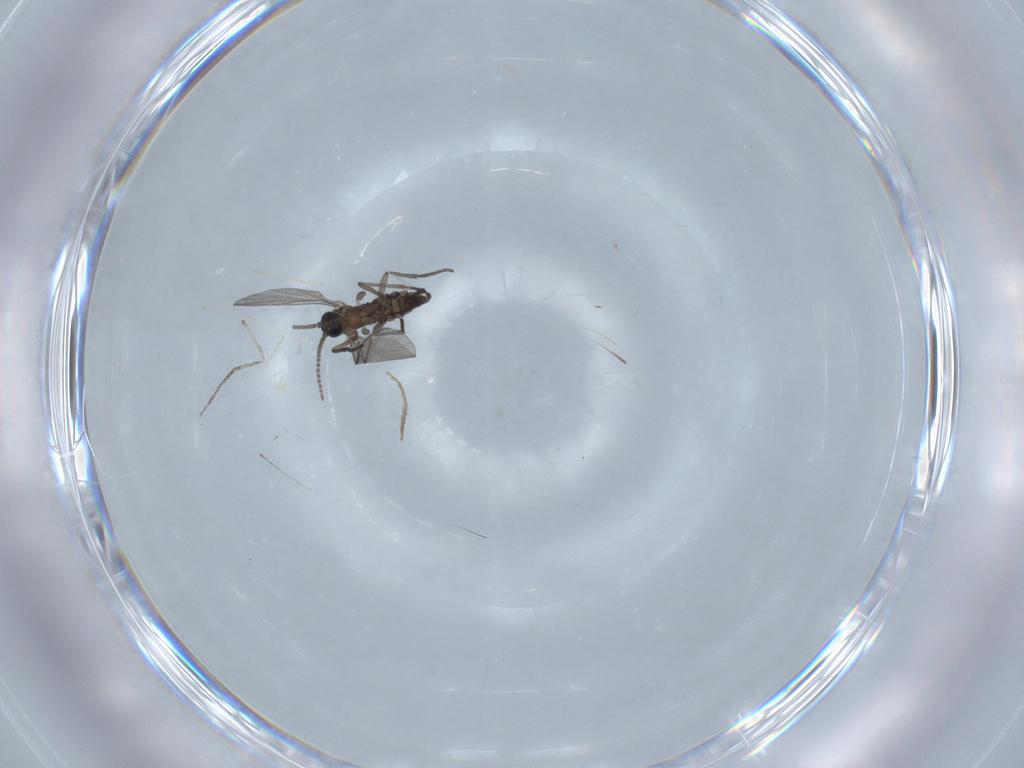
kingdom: Animalia
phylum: Arthropoda
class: Insecta
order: Diptera
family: Cecidomyiidae
